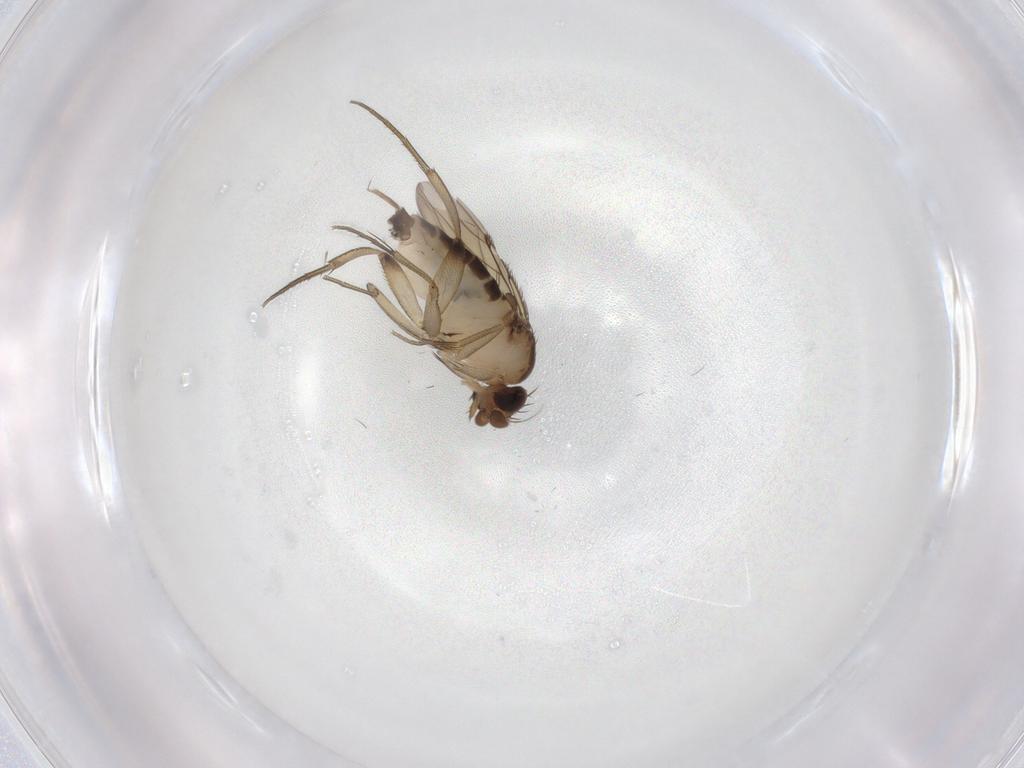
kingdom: Animalia
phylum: Arthropoda
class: Insecta
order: Diptera
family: Phoridae
